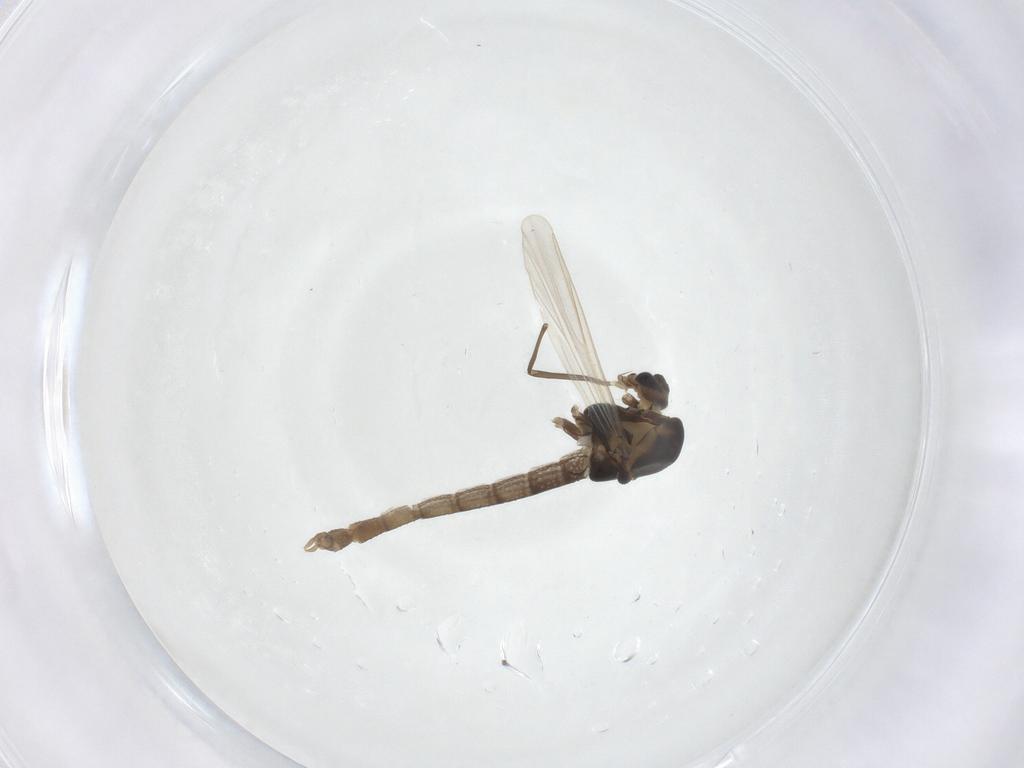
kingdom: Animalia
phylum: Arthropoda
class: Insecta
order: Diptera
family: Chironomidae
